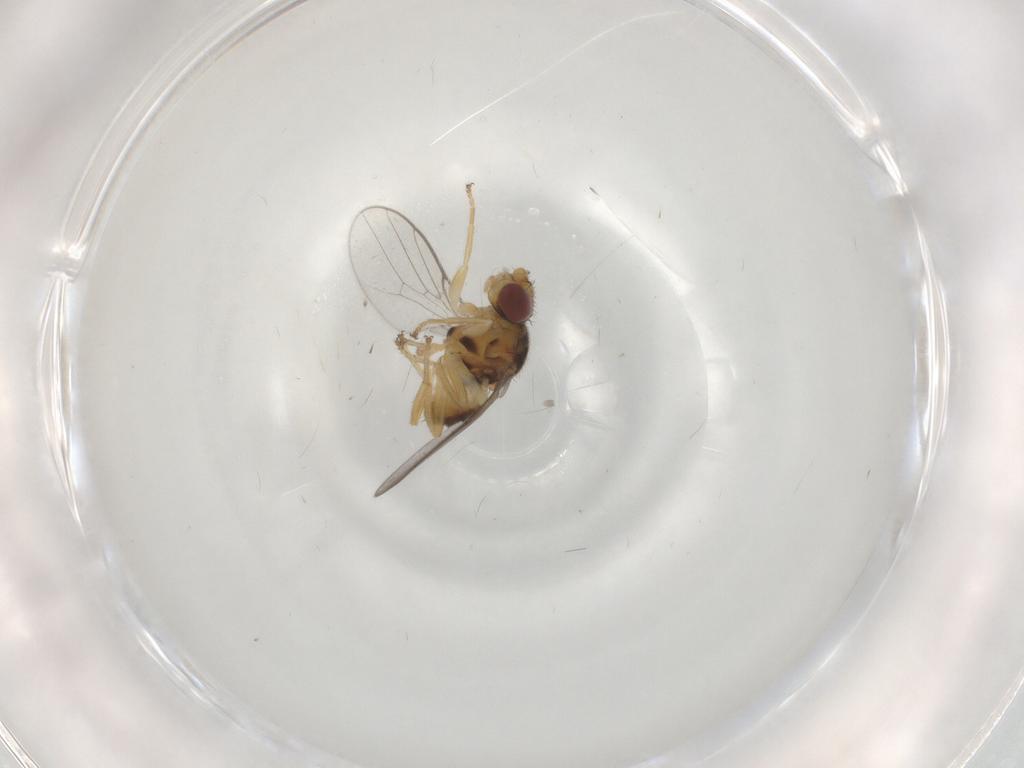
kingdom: Animalia
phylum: Arthropoda
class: Insecta
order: Diptera
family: Chloropidae
